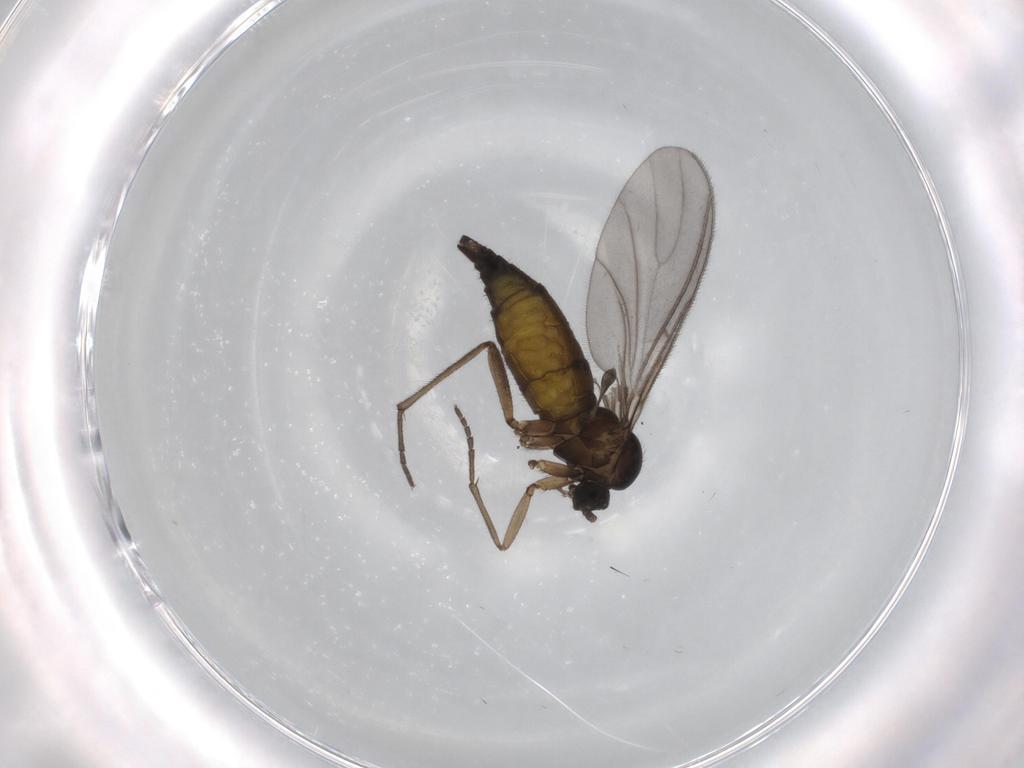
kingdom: Animalia
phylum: Arthropoda
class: Insecta
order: Diptera
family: Sciaridae
